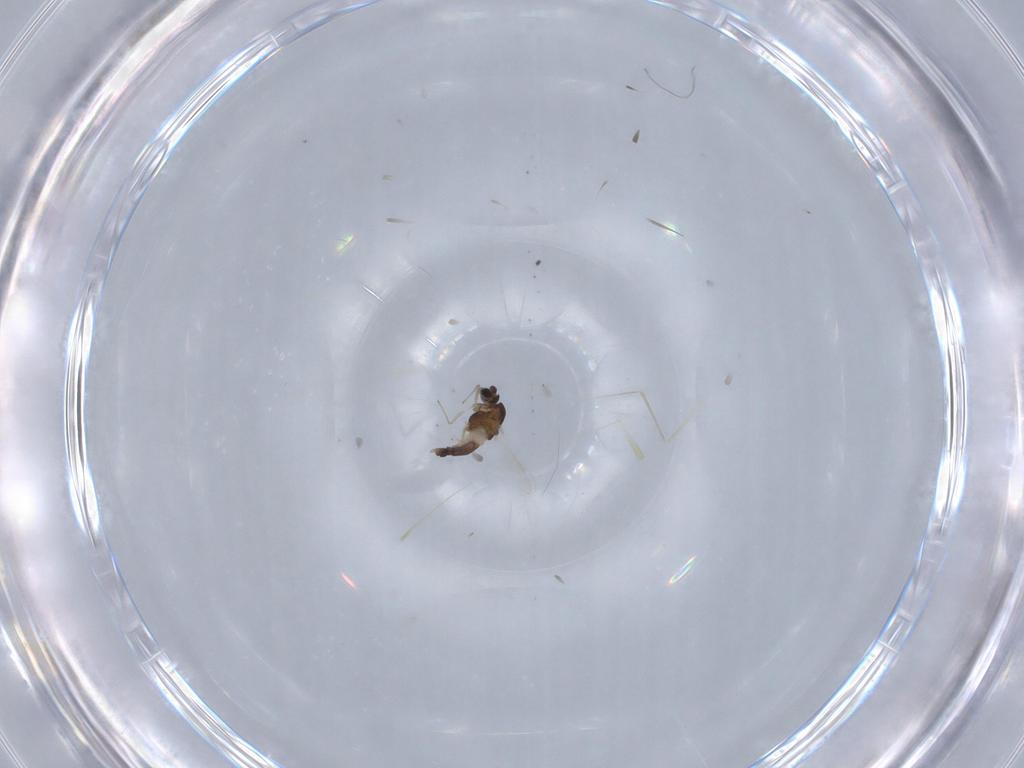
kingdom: Animalia
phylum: Arthropoda
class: Insecta
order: Diptera
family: Chironomidae
